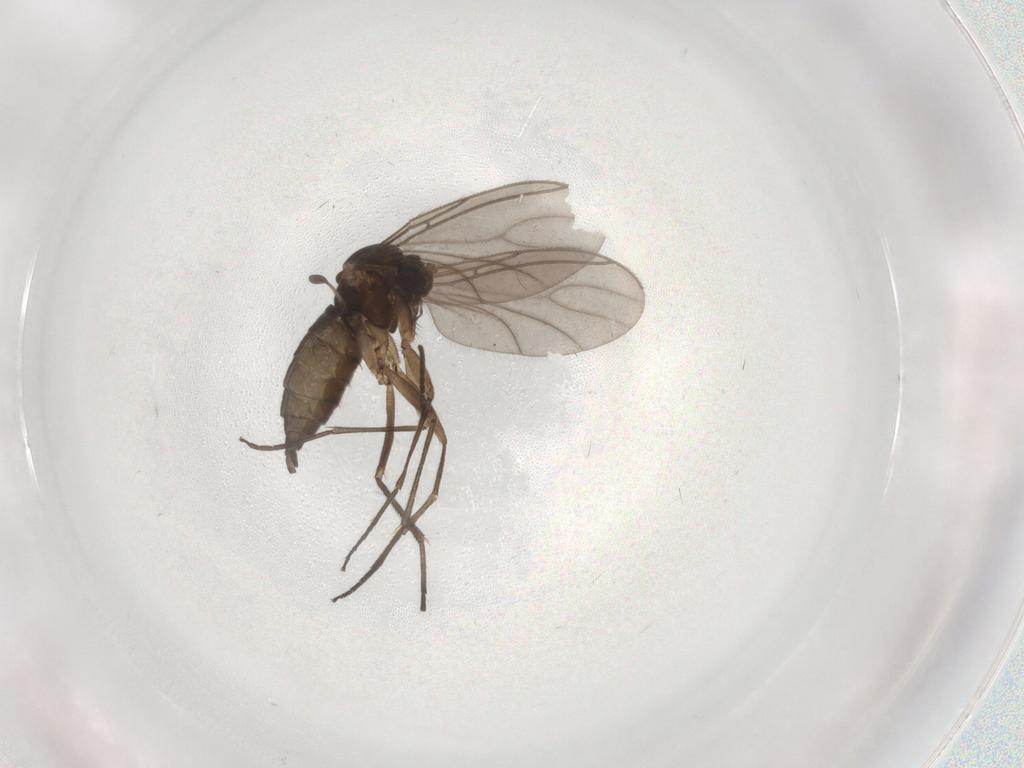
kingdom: Animalia
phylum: Arthropoda
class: Insecta
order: Diptera
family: Sciaridae
